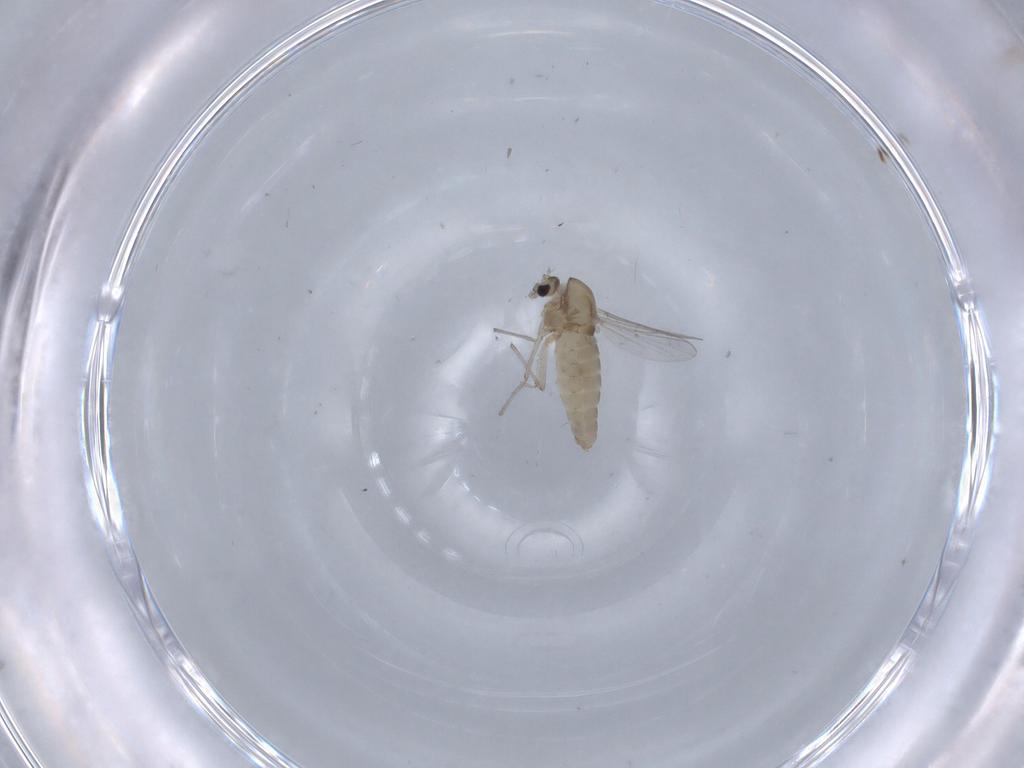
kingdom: Animalia
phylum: Arthropoda
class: Insecta
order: Diptera
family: Chironomidae
